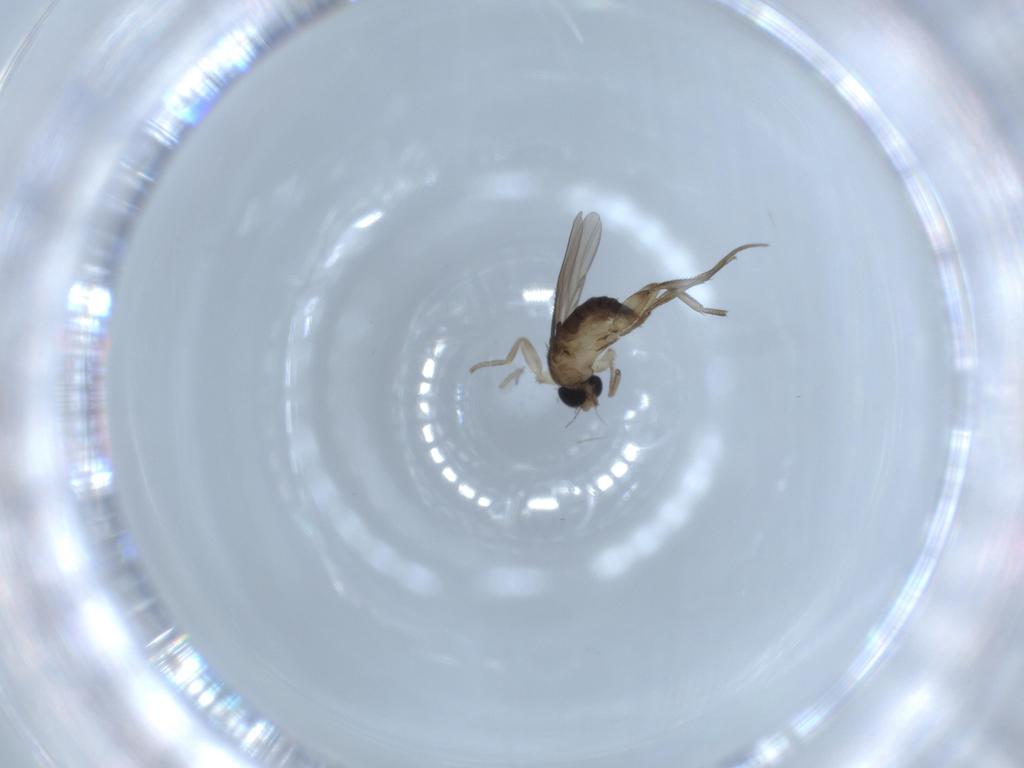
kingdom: Animalia
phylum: Arthropoda
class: Insecta
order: Diptera
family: Phoridae
